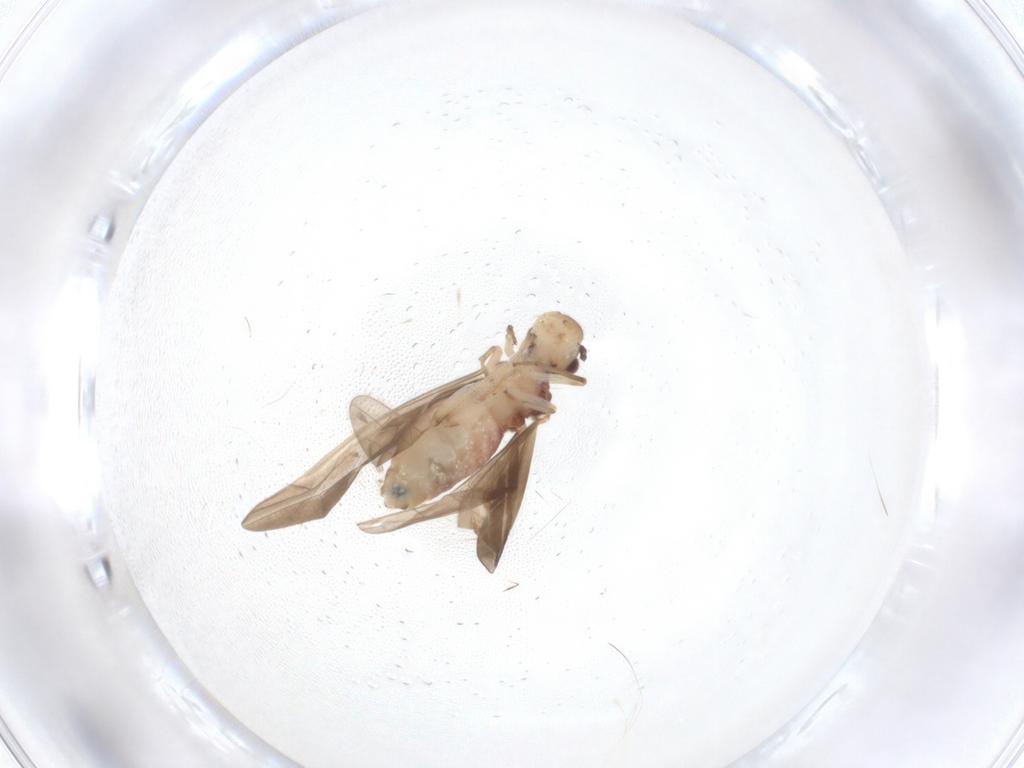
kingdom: Animalia
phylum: Arthropoda
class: Insecta
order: Psocodea
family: Caeciliusidae
